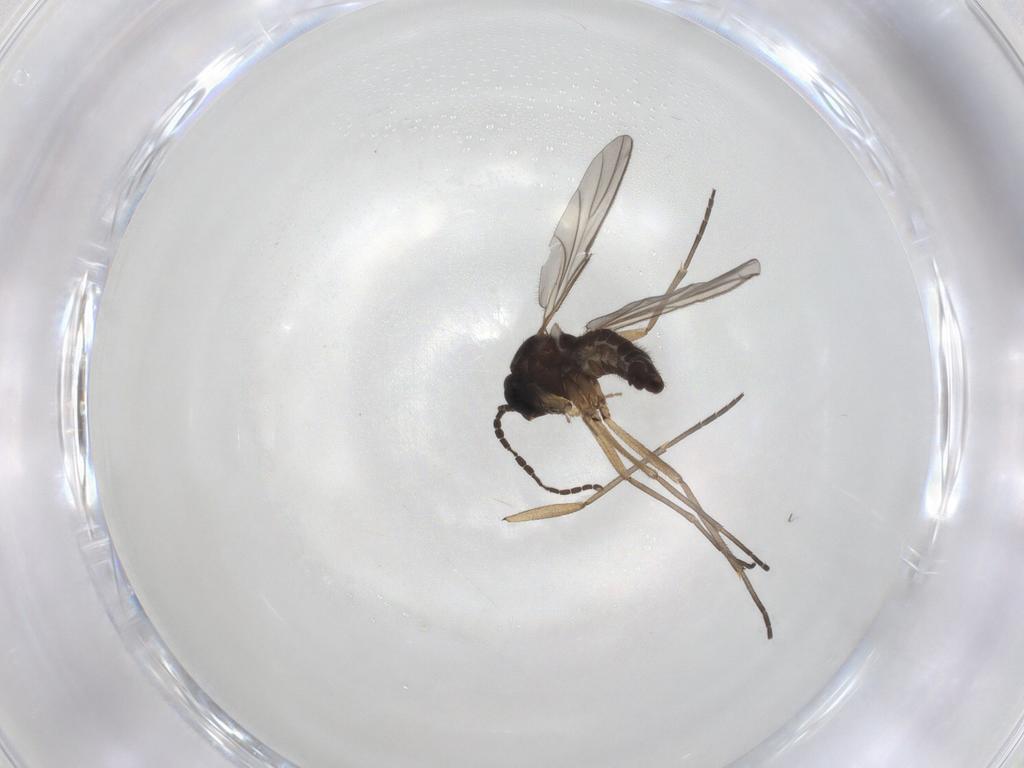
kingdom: Animalia
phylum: Arthropoda
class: Insecta
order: Diptera
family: Sciaridae
